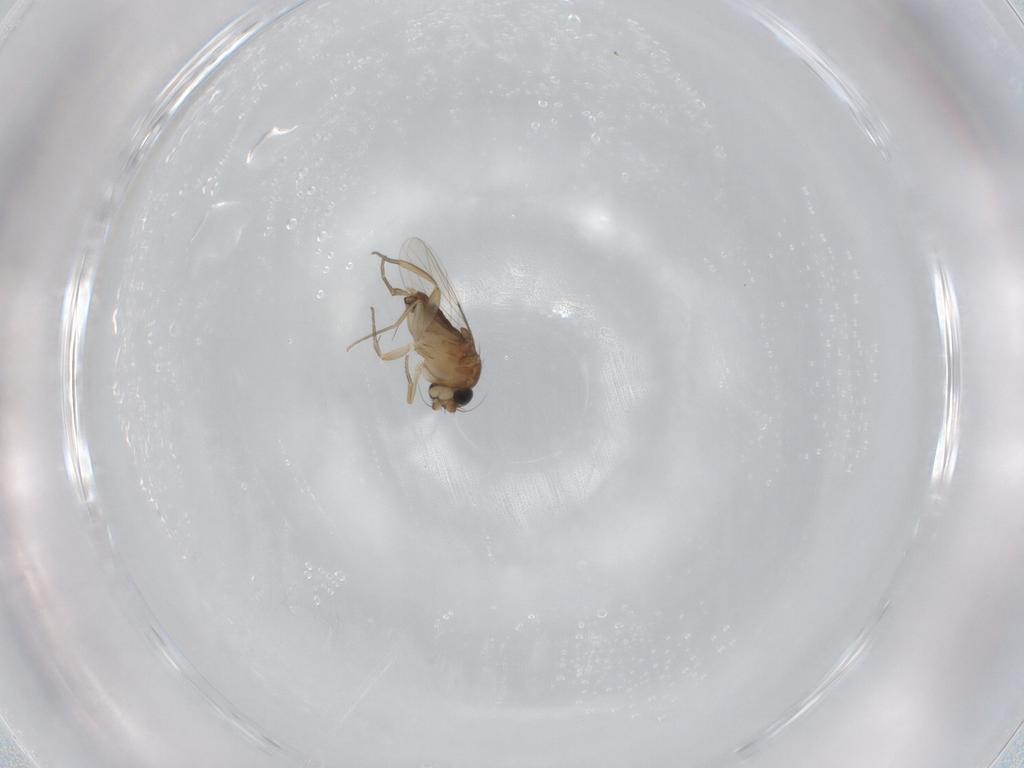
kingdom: Animalia
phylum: Arthropoda
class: Insecta
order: Diptera
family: Phoridae
